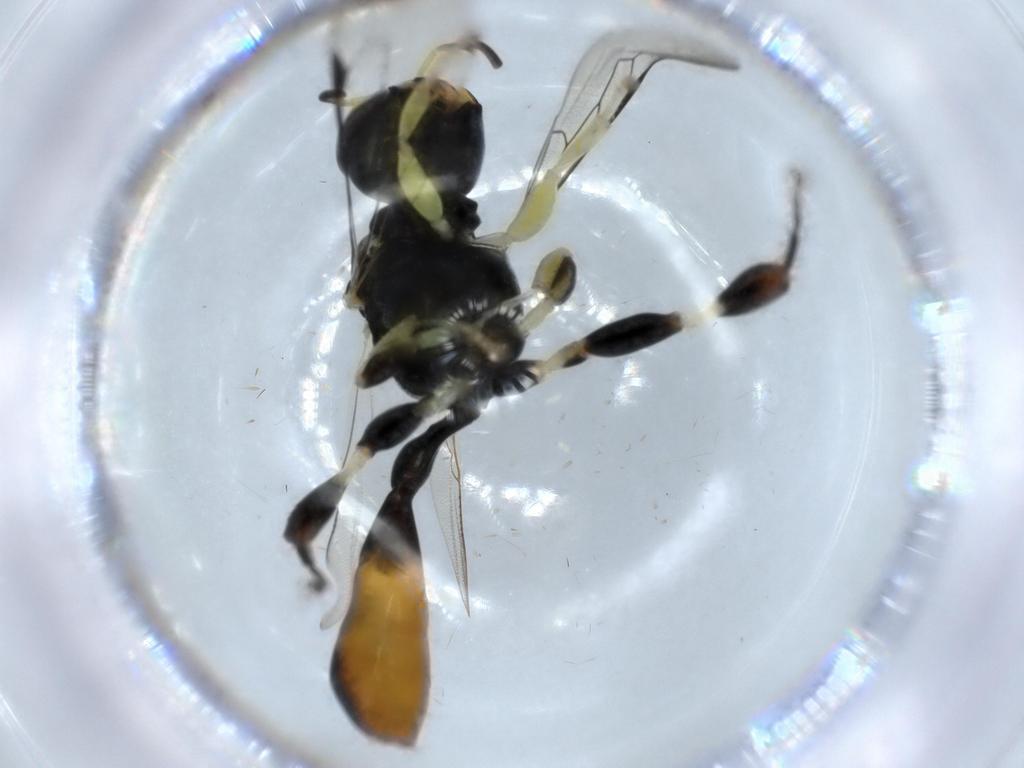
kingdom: Animalia
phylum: Arthropoda
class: Insecta
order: Hymenoptera
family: Crabronidae
